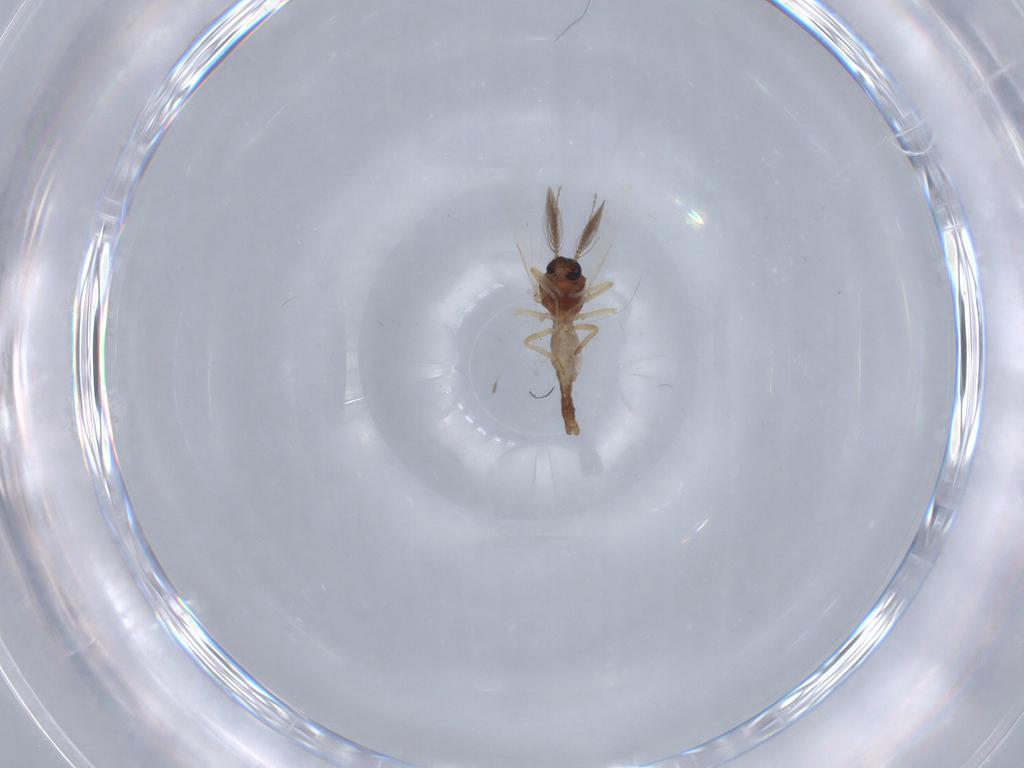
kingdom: Animalia
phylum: Arthropoda
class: Insecta
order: Diptera
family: Ceratopogonidae
